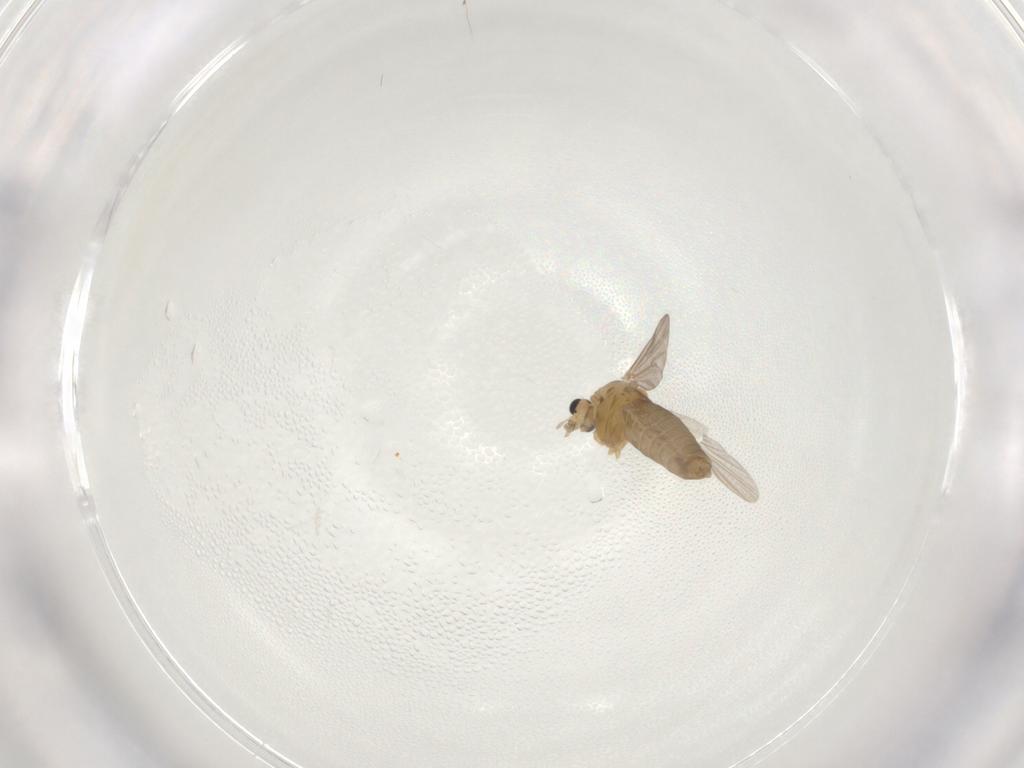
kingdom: Animalia
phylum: Arthropoda
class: Insecta
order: Diptera
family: Chironomidae
